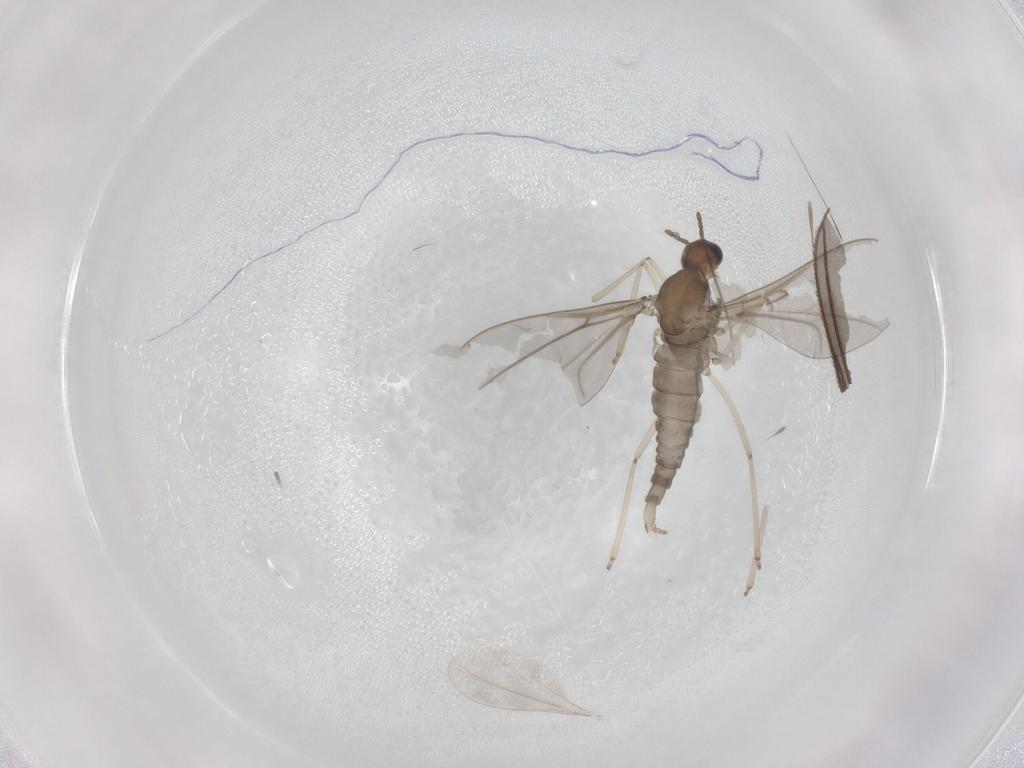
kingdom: Animalia
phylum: Arthropoda
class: Insecta
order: Diptera
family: Cecidomyiidae
